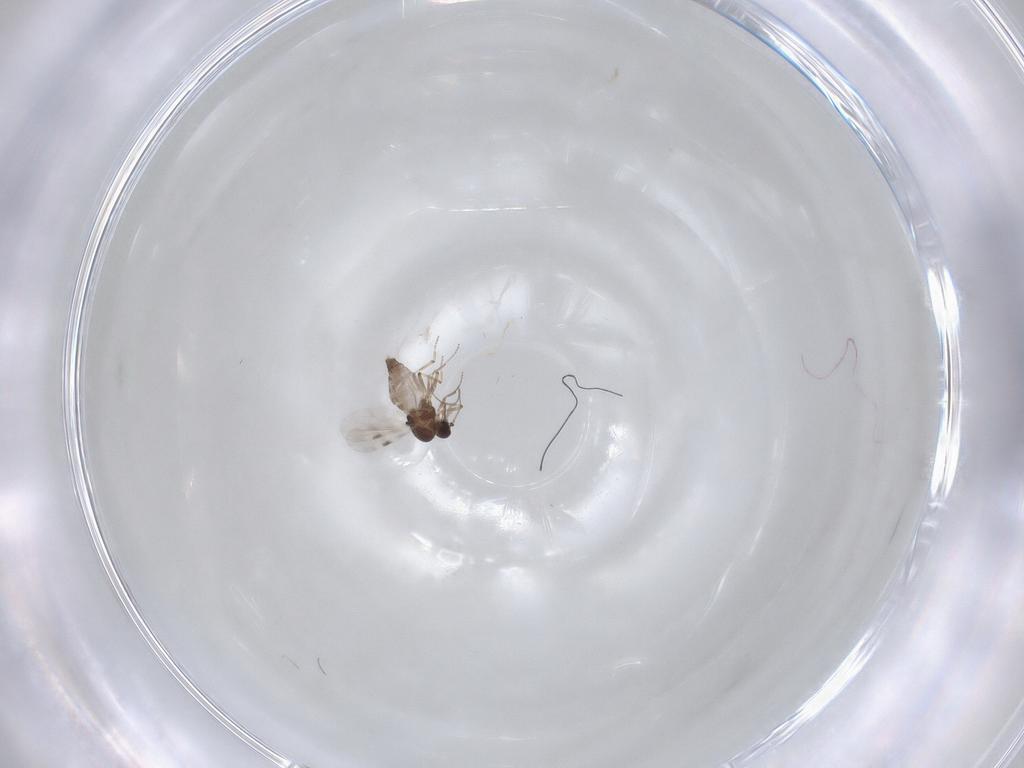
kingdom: Animalia
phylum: Arthropoda
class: Insecta
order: Diptera
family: Chironomidae
